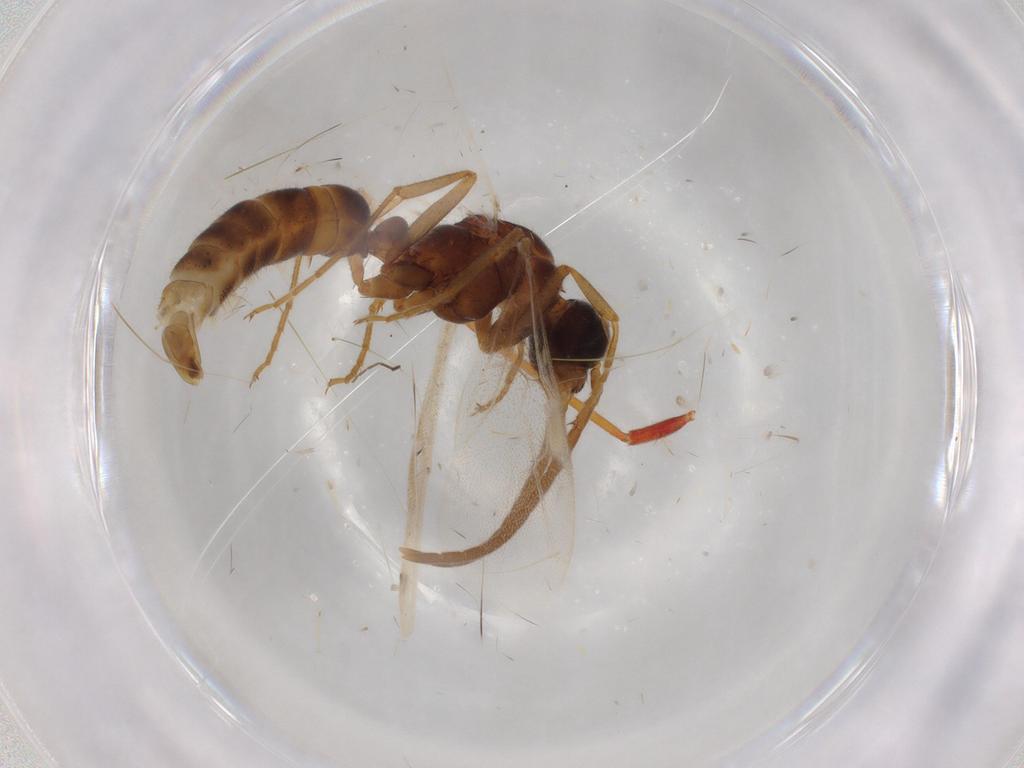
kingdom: Animalia
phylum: Arthropoda
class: Insecta
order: Hymenoptera
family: Formicidae
